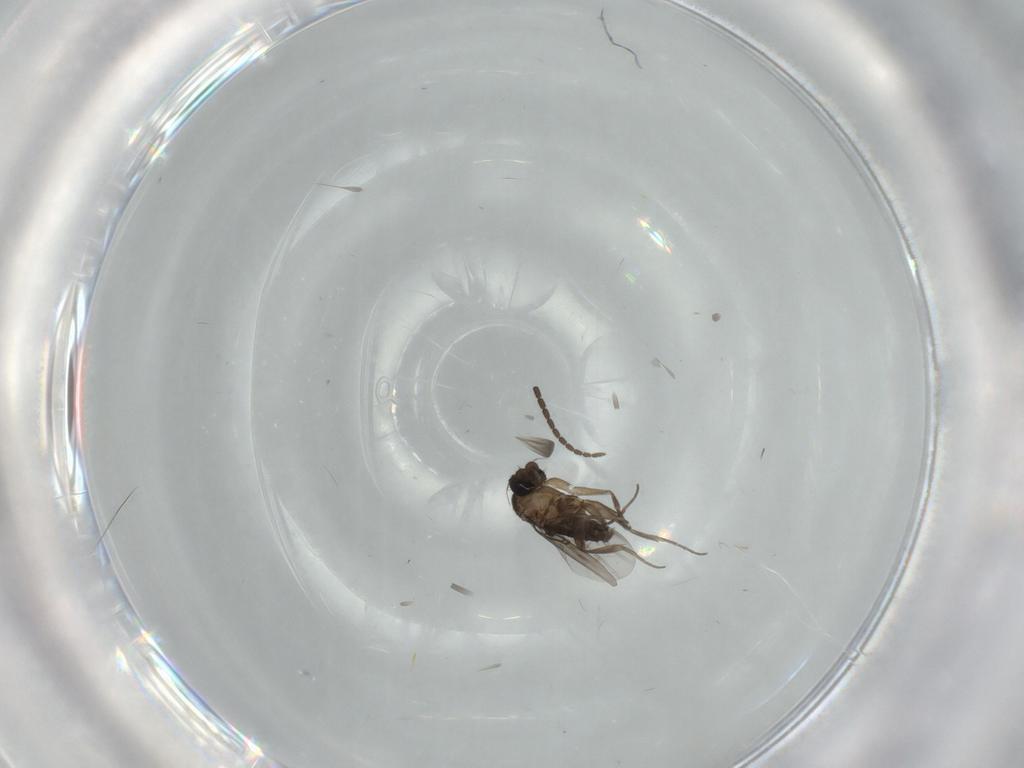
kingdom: Animalia
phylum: Arthropoda
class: Insecta
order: Diptera
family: Sciaridae
